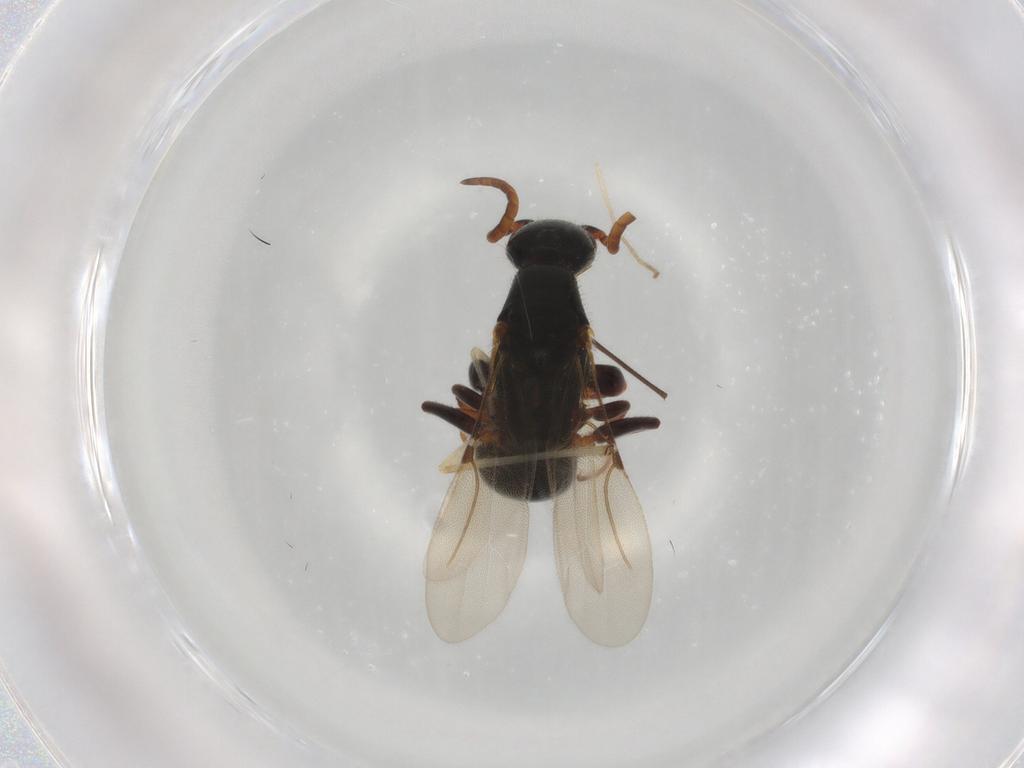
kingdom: Animalia
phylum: Arthropoda
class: Insecta
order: Hymenoptera
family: Bethylidae
